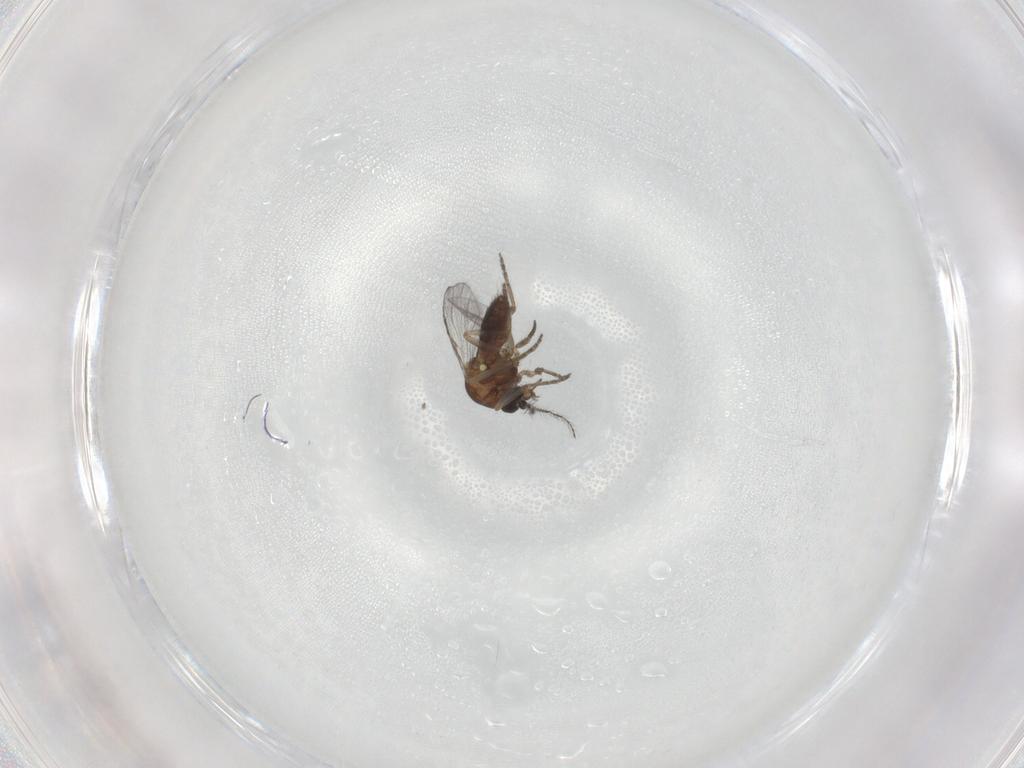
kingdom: Animalia
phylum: Arthropoda
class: Insecta
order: Diptera
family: Ceratopogonidae
